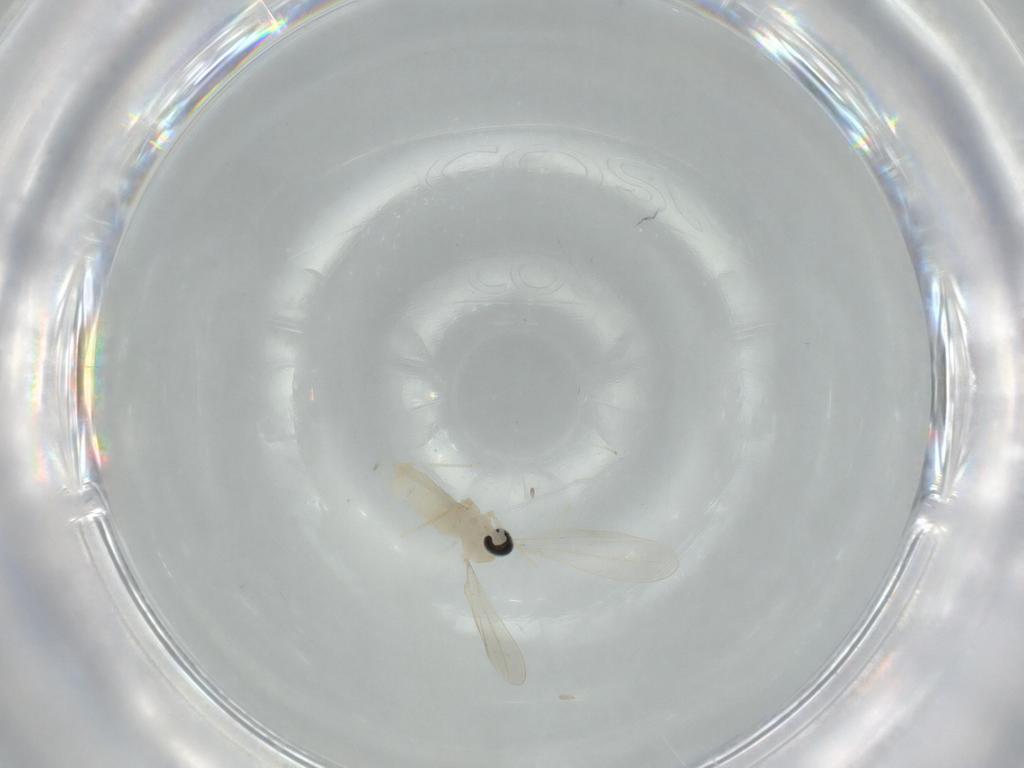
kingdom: Animalia
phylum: Arthropoda
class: Insecta
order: Diptera
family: Cecidomyiidae
